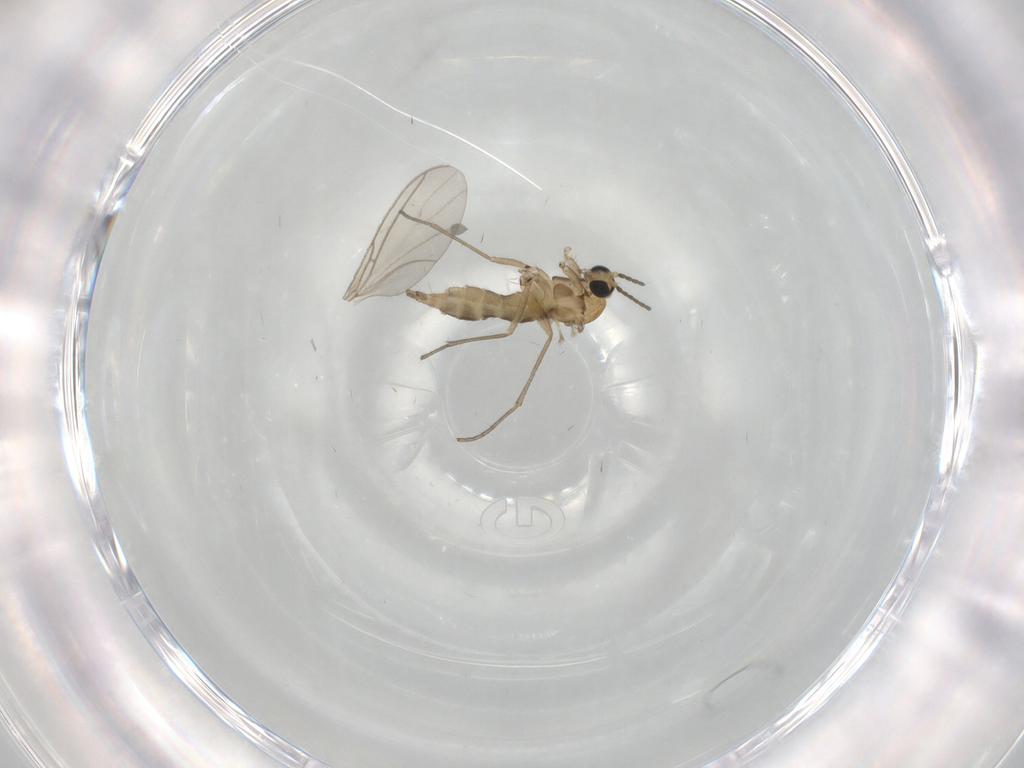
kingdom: Animalia
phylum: Arthropoda
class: Insecta
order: Diptera
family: Sciaridae
